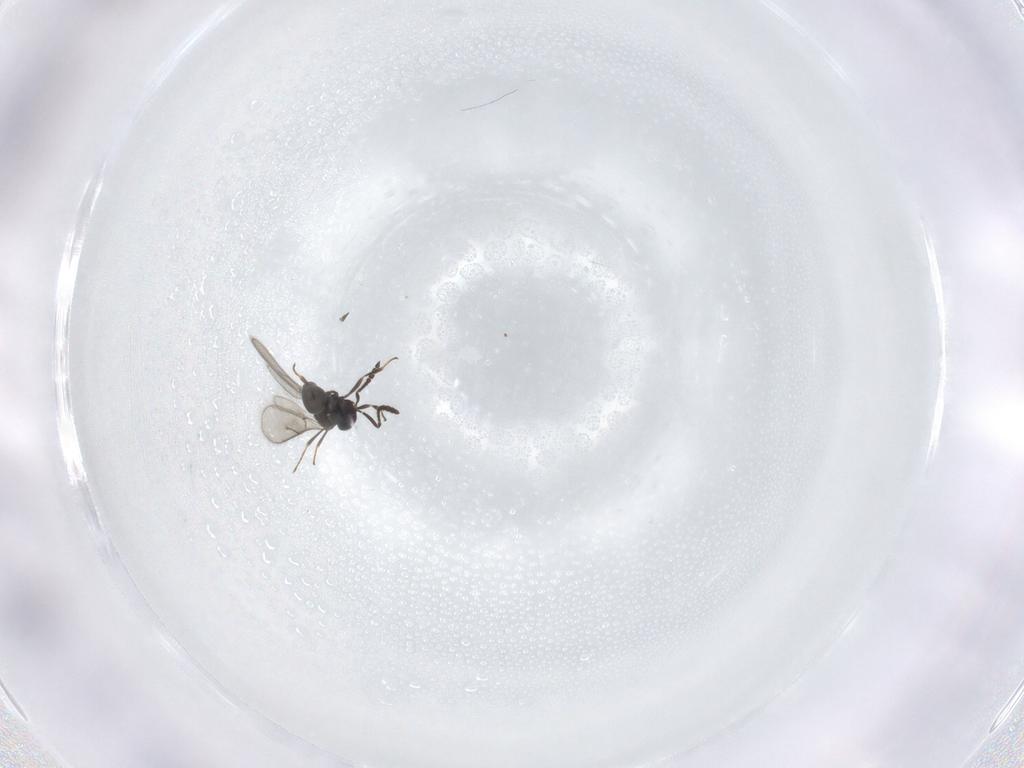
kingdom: Animalia
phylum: Arthropoda
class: Insecta
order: Hymenoptera
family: Scelionidae
